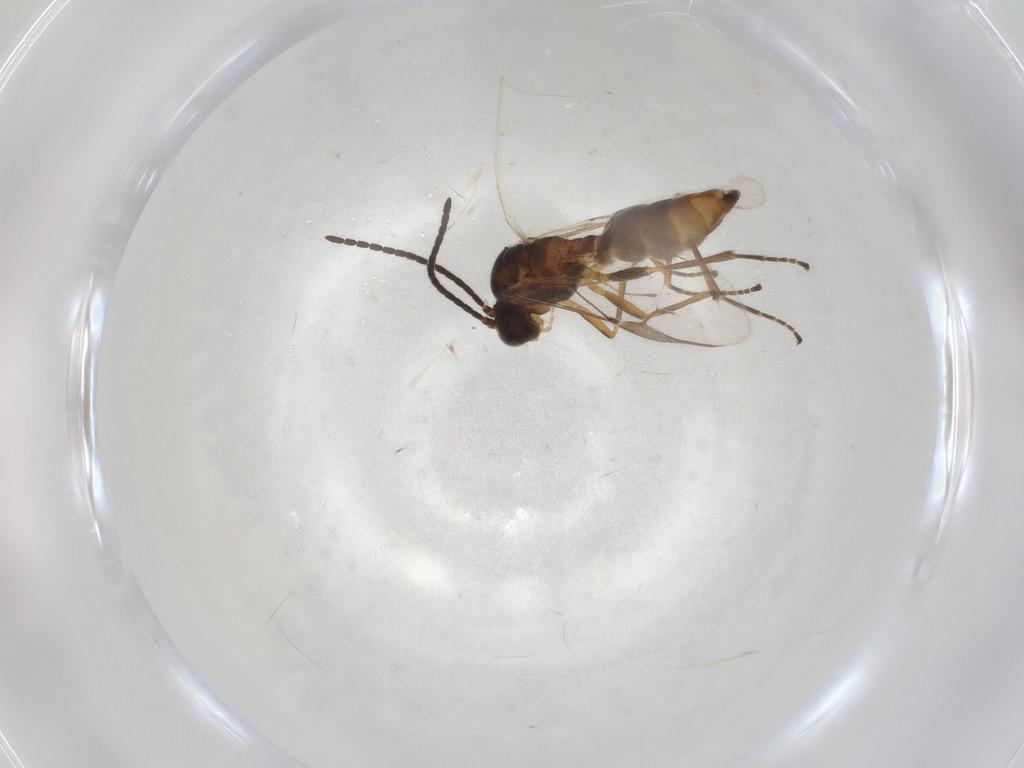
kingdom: Animalia
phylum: Arthropoda
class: Insecta
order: Hymenoptera
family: Braconidae
